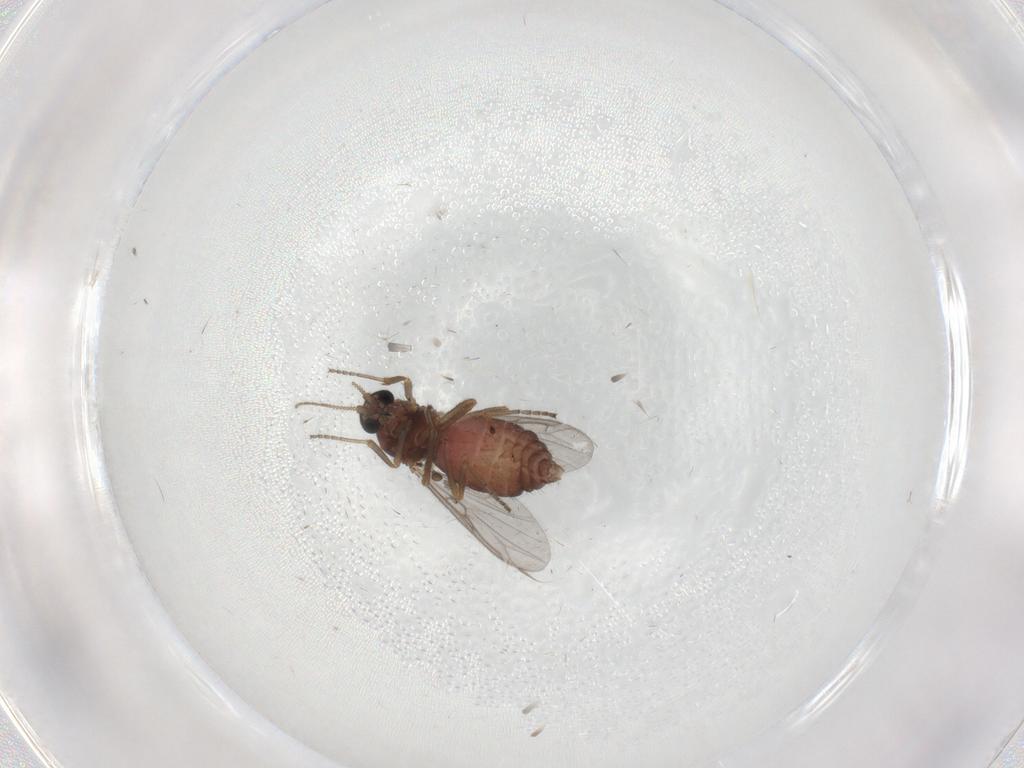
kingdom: Animalia
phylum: Arthropoda
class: Insecta
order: Diptera
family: Ceratopogonidae
